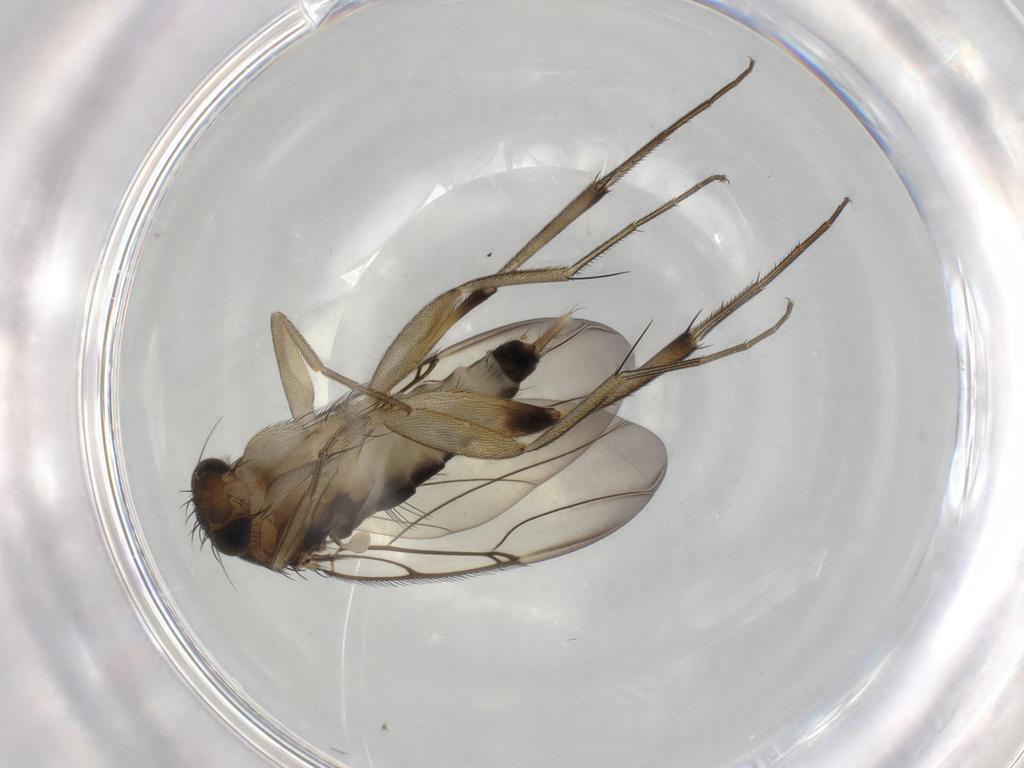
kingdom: Animalia
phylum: Arthropoda
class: Insecta
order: Diptera
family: Phoridae
